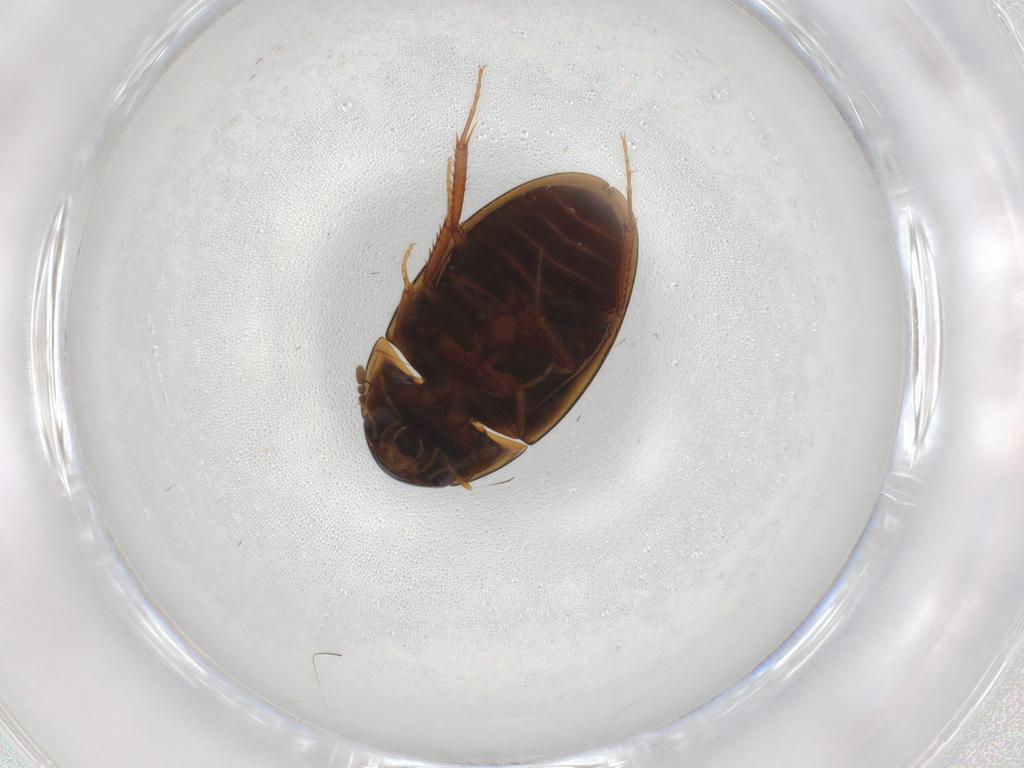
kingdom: Animalia
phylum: Arthropoda
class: Insecta
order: Coleoptera
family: Hydrophilidae
